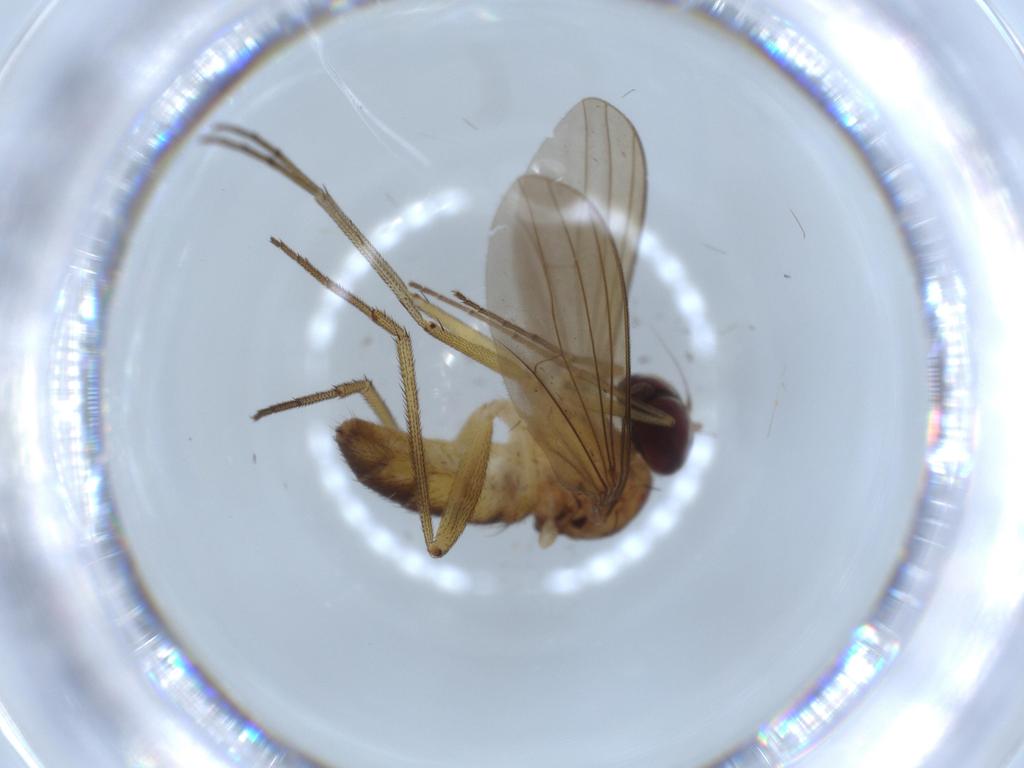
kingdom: Animalia
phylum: Arthropoda
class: Insecta
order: Diptera
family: Dolichopodidae
